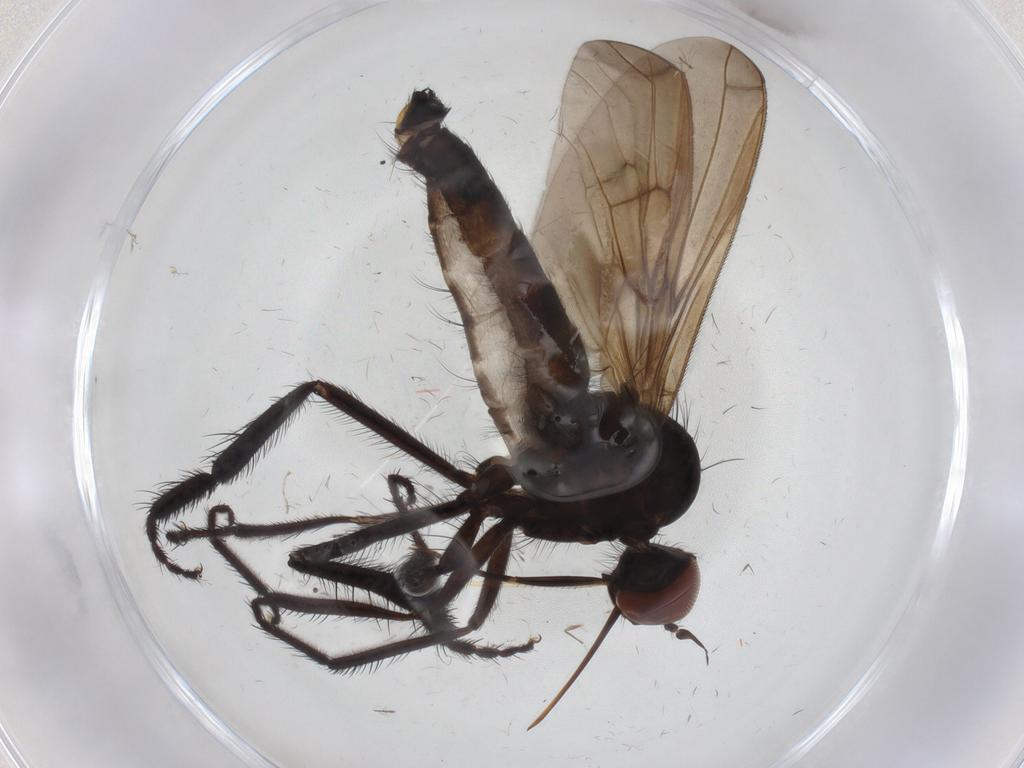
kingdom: Animalia
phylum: Arthropoda
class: Insecta
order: Diptera
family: Empididae
